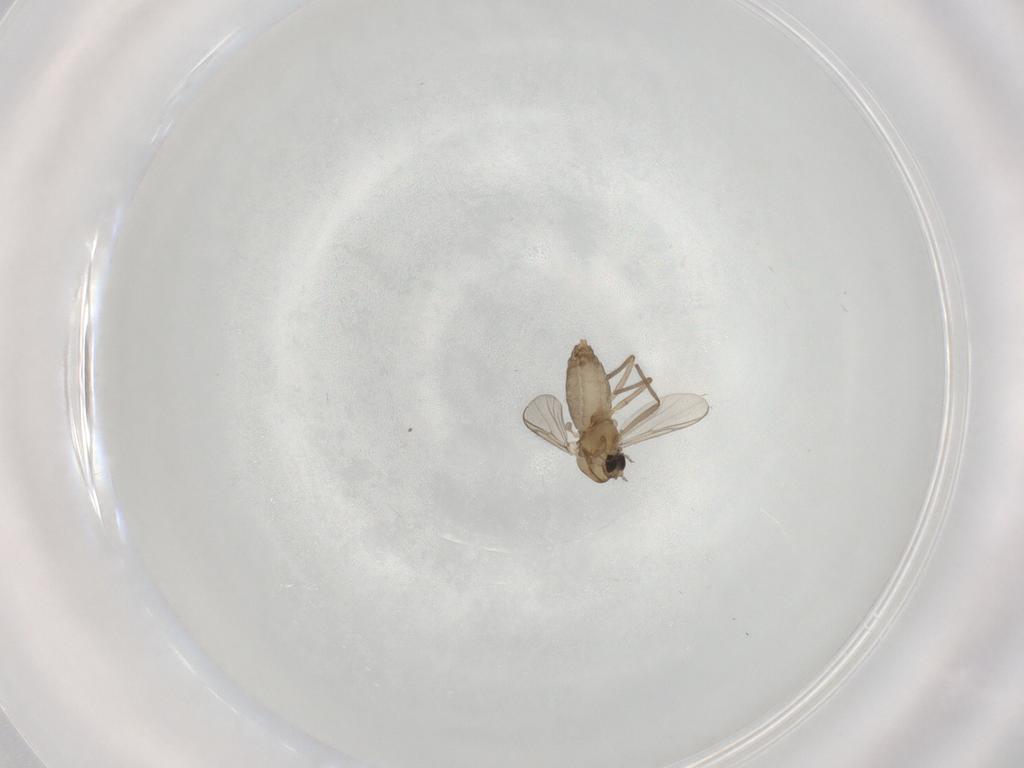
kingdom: Animalia
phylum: Arthropoda
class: Insecta
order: Diptera
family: Chironomidae
